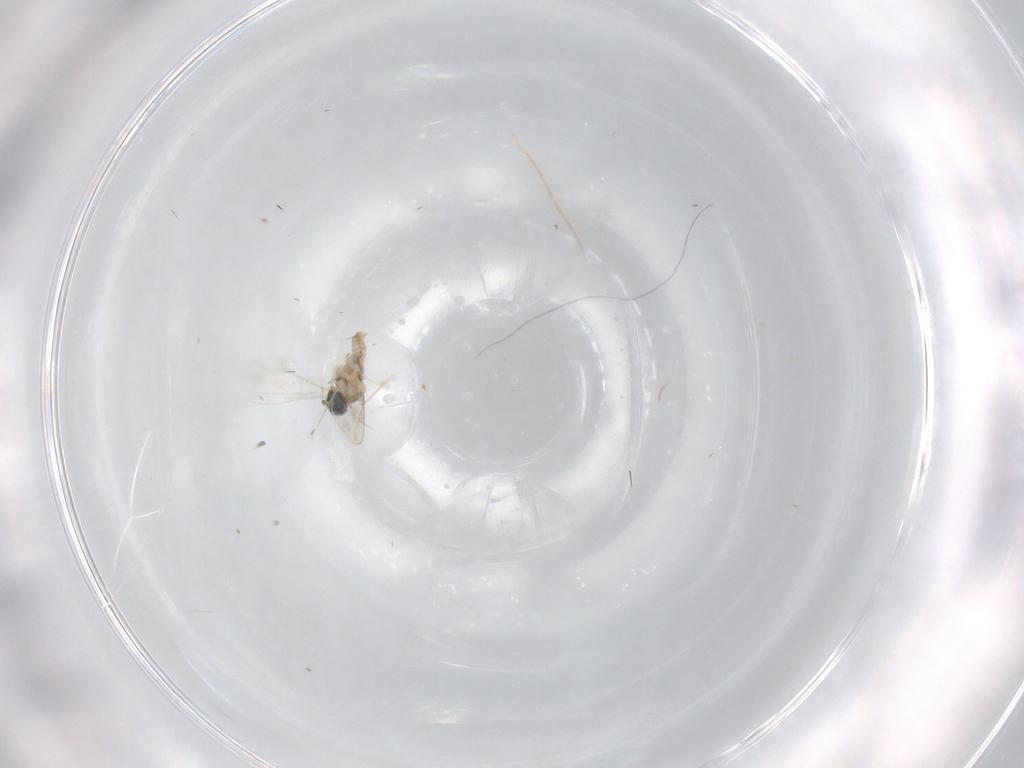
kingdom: Animalia
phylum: Arthropoda
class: Insecta
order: Diptera
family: Cecidomyiidae
